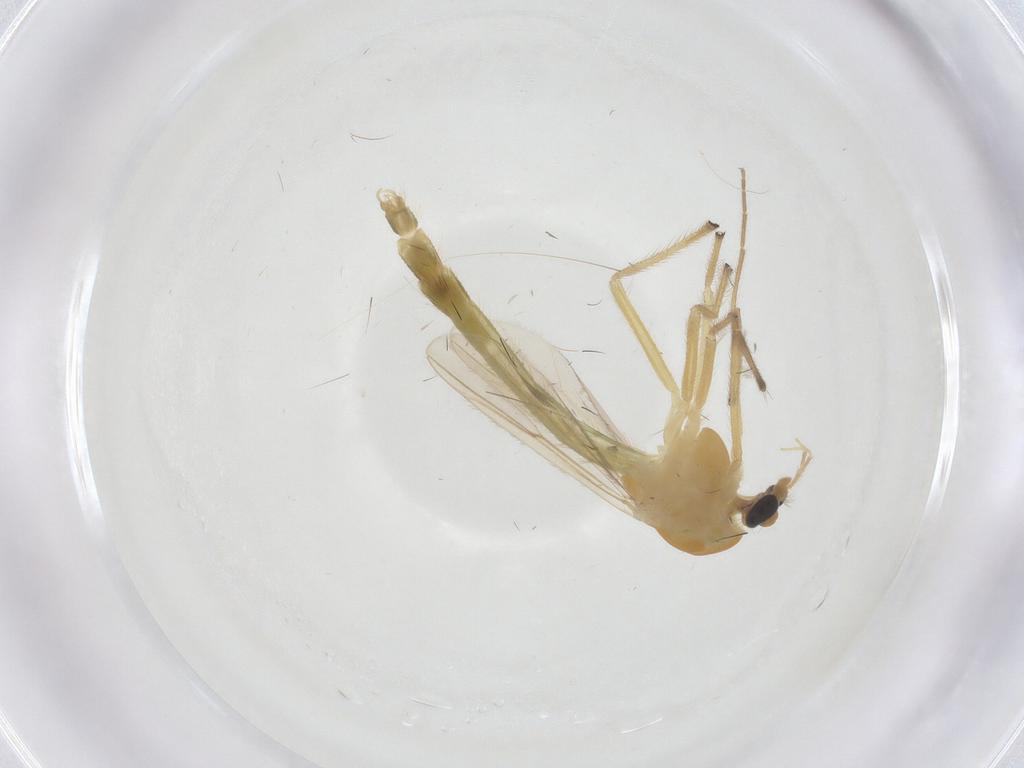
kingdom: Animalia
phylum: Arthropoda
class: Insecta
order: Diptera
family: Chironomidae
